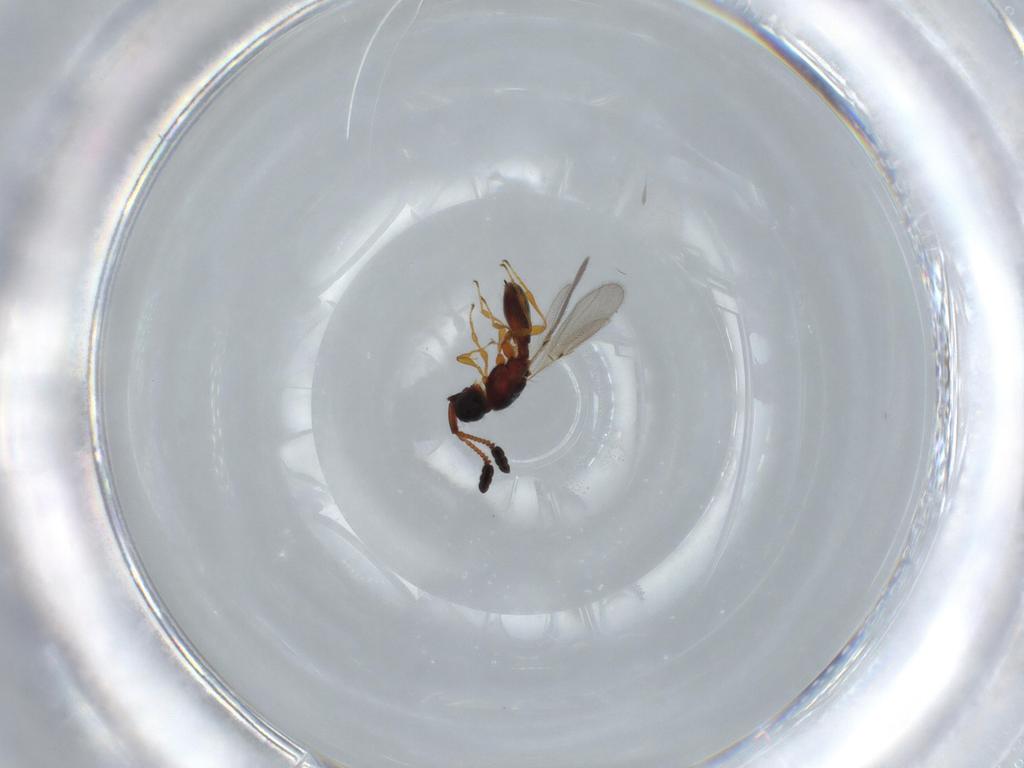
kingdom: Animalia
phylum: Arthropoda
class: Insecta
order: Hymenoptera
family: Diapriidae
